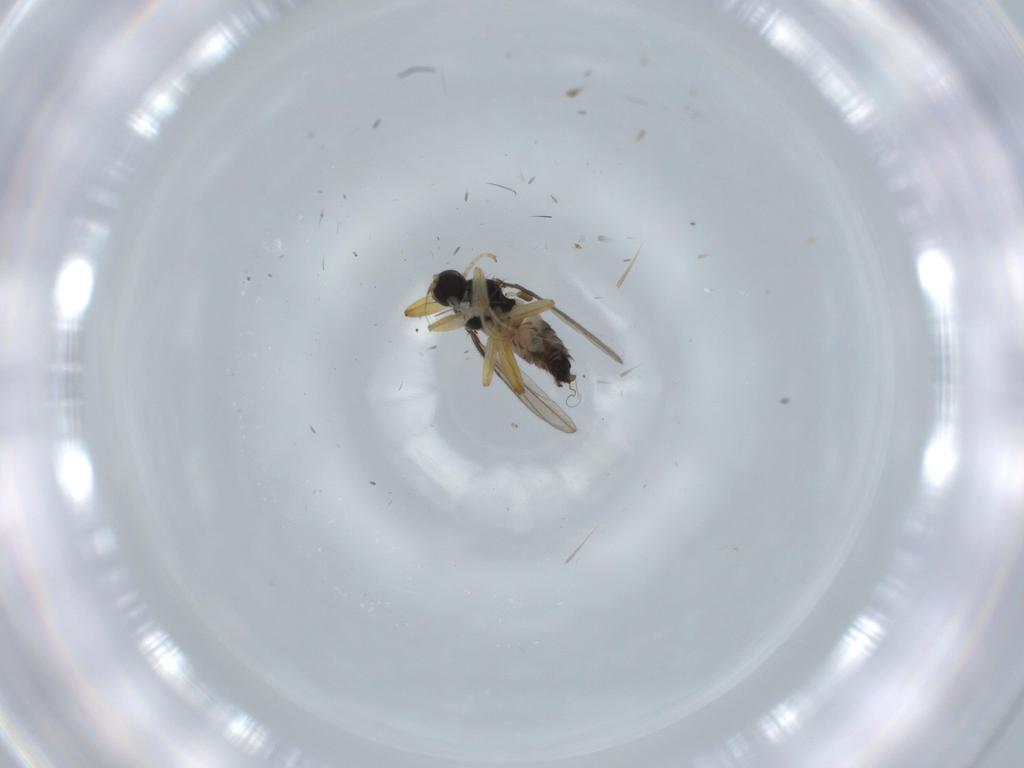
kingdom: Animalia
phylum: Arthropoda
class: Insecta
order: Diptera
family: Hybotidae
